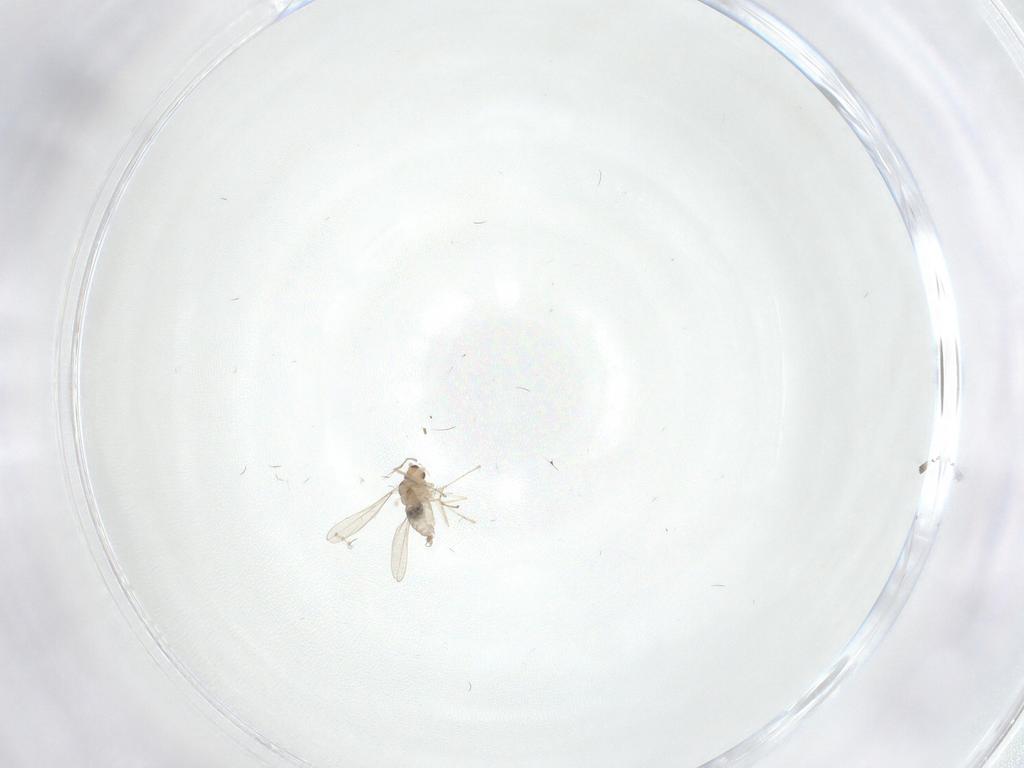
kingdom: Animalia
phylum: Arthropoda
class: Insecta
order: Diptera
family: Cecidomyiidae
